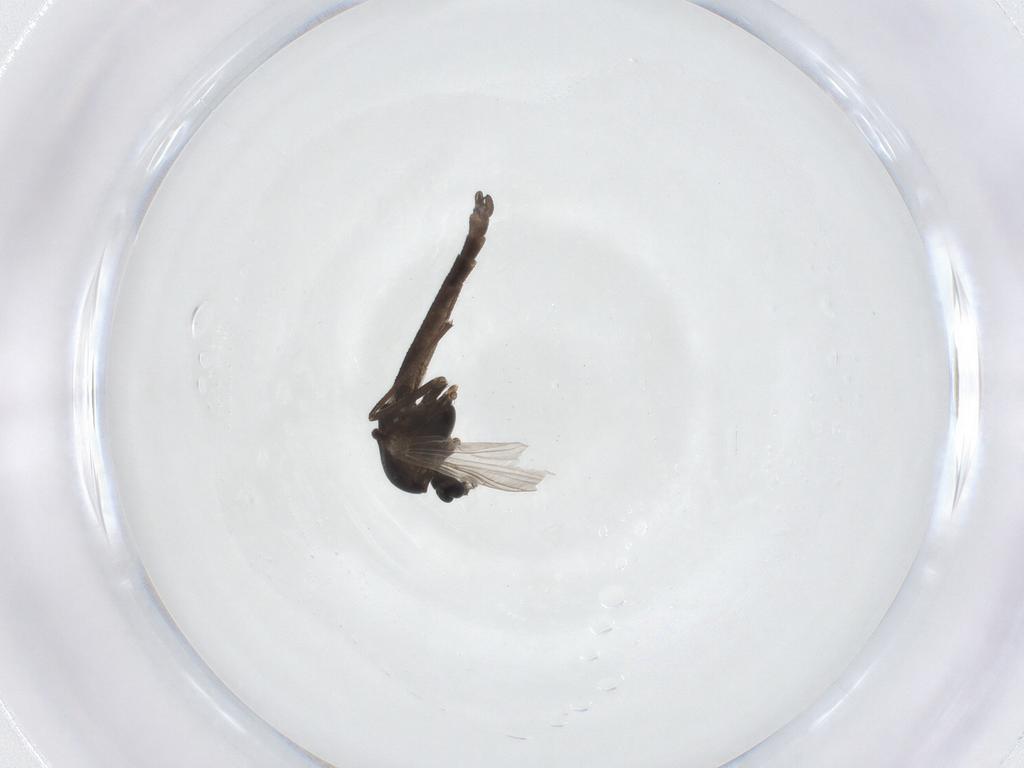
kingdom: Animalia
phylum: Arthropoda
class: Insecta
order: Diptera
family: Chironomidae
